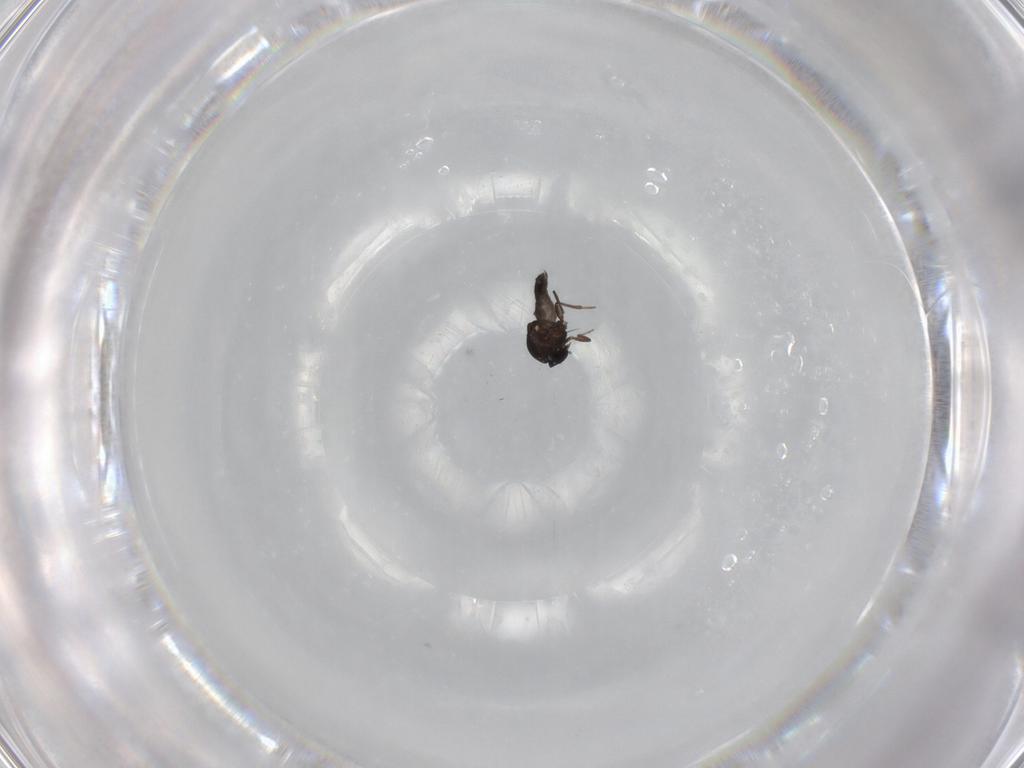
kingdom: Animalia
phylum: Arthropoda
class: Insecta
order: Diptera
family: Ceratopogonidae
